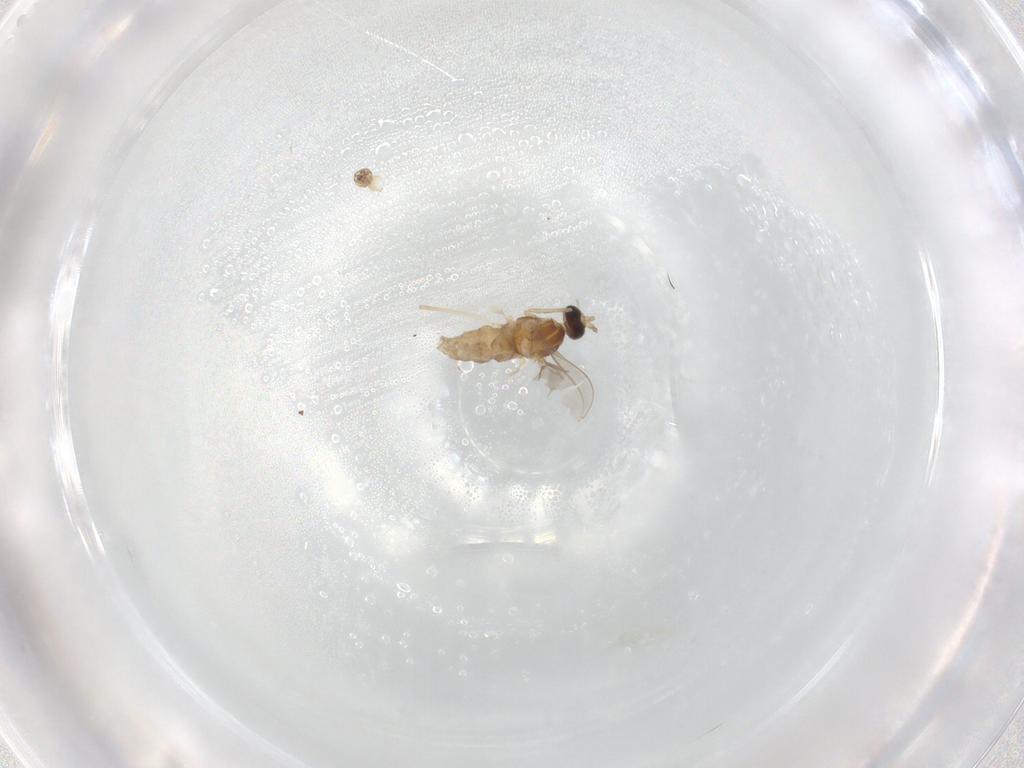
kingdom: Animalia
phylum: Arthropoda
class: Insecta
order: Diptera
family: Cecidomyiidae
